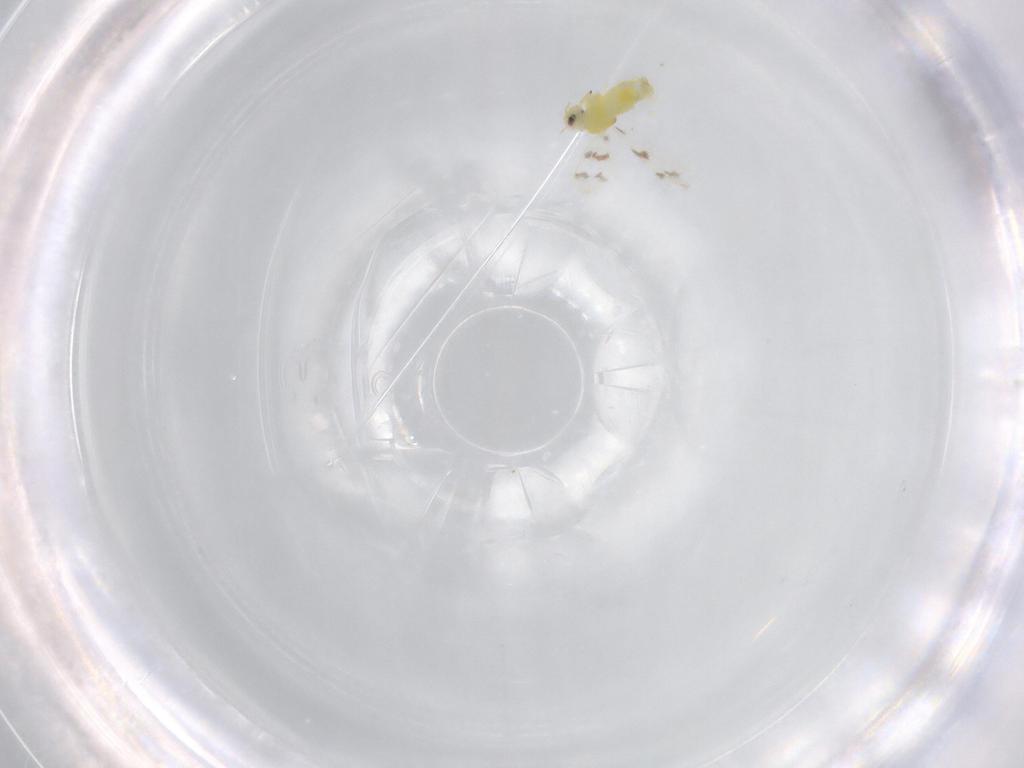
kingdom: Animalia
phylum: Arthropoda
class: Insecta
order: Hemiptera
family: Aleyrodidae
